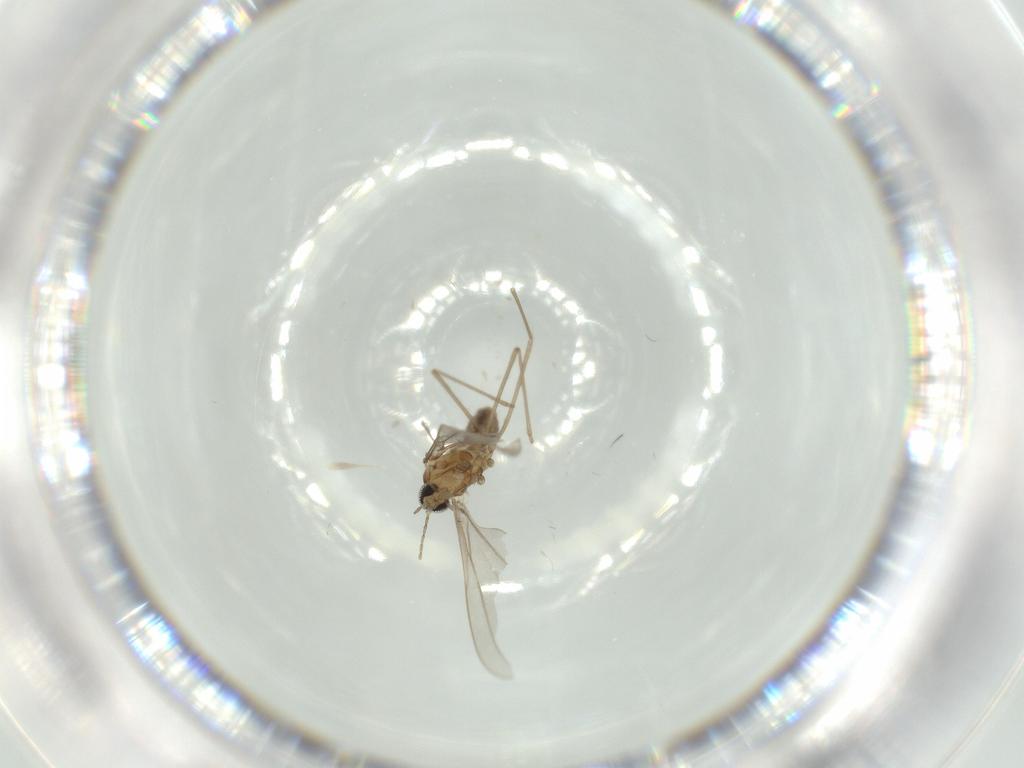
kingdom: Animalia
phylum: Arthropoda
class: Insecta
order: Diptera
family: Cecidomyiidae
